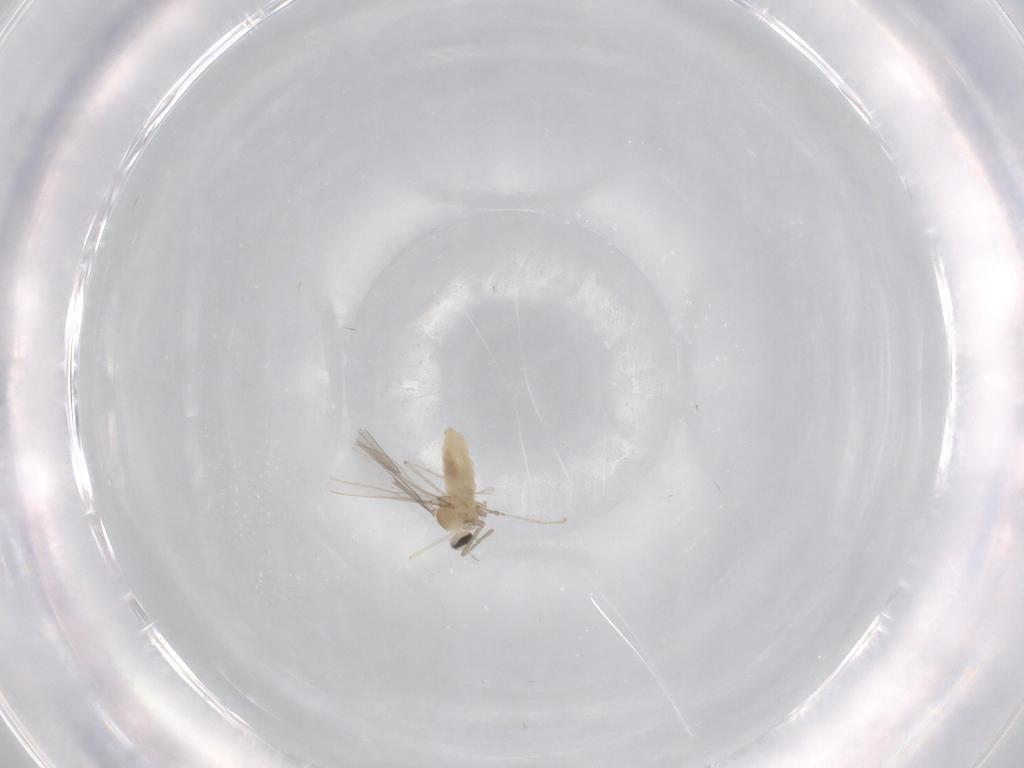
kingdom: Animalia
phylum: Arthropoda
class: Insecta
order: Diptera
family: Cecidomyiidae
